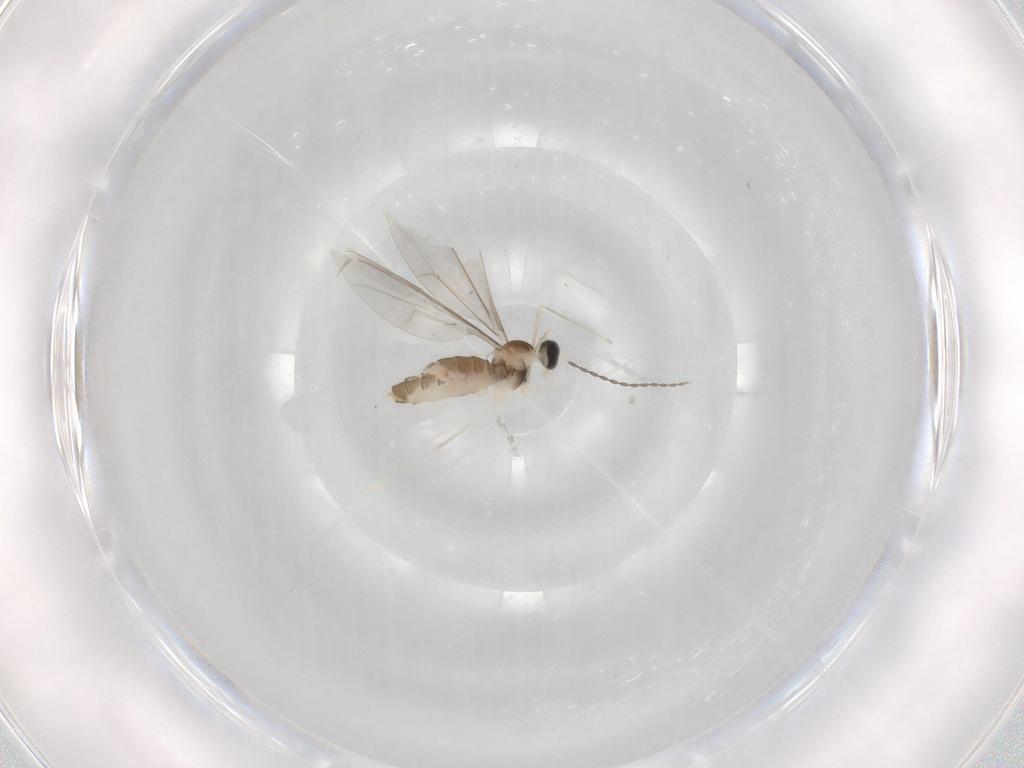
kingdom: Animalia
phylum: Arthropoda
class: Insecta
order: Diptera
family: Cecidomyiidae
